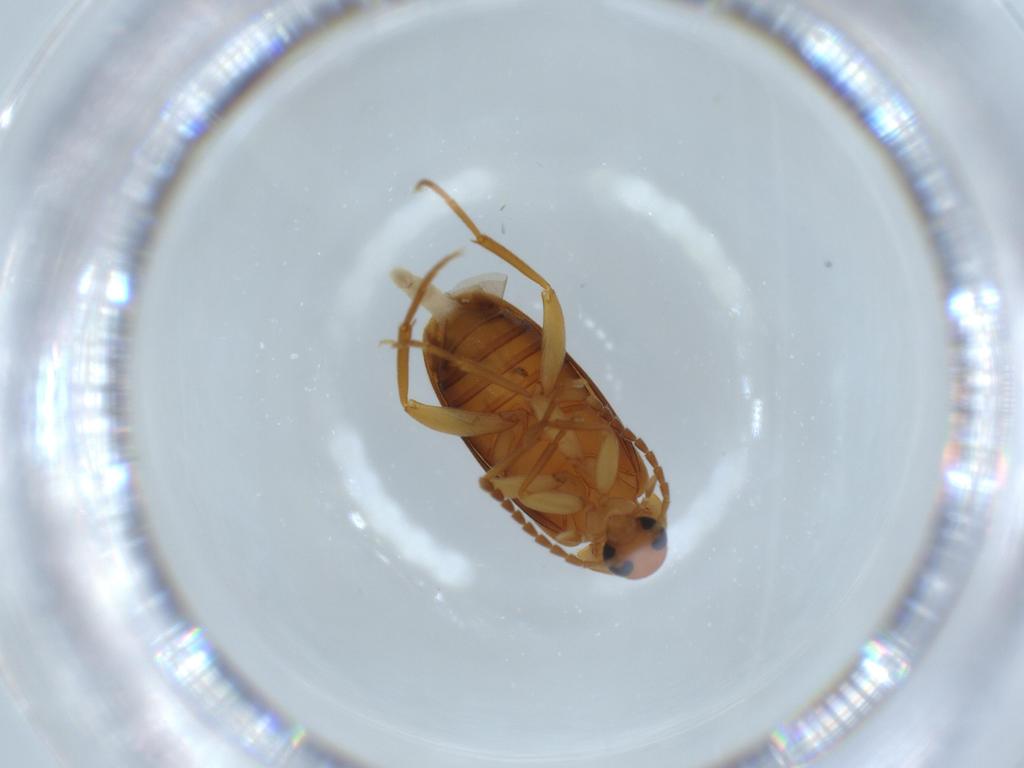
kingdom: Animalia
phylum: Arthropoda
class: Insecta
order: Coleoptera
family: Scraptiidae
